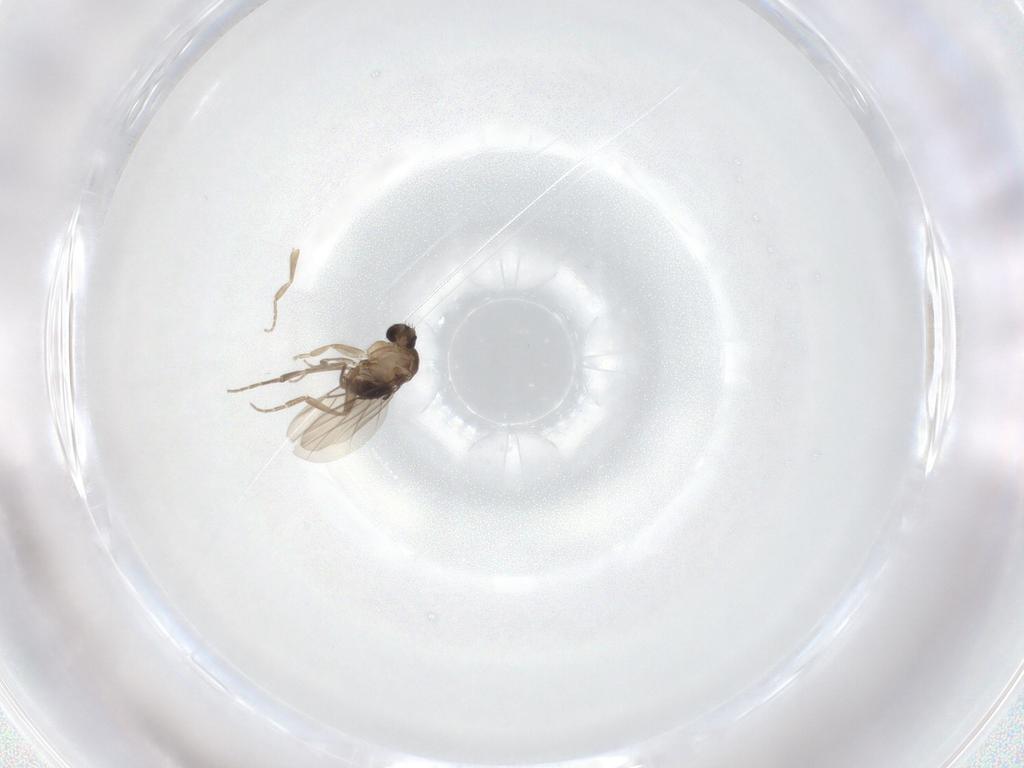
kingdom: Animalia
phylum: Arthropoda
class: Insecta
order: Diptera
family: Phoridae
